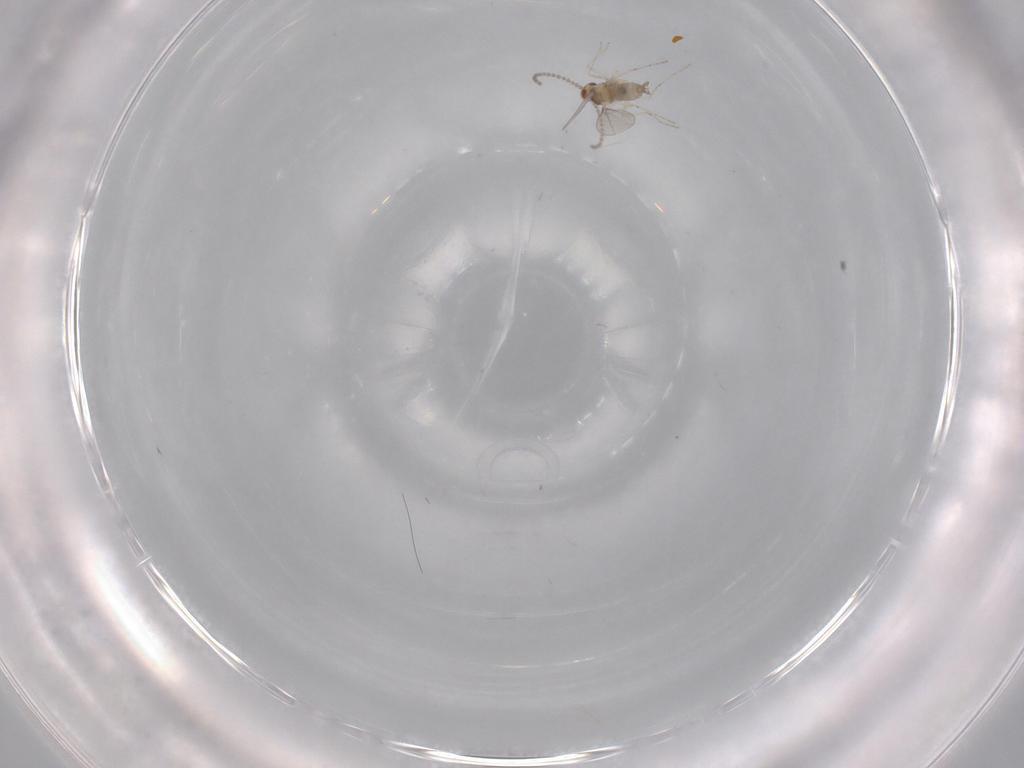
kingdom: Animalia
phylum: Arthropoda
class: Insecta
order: Diptera
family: Cecidomyiidae
